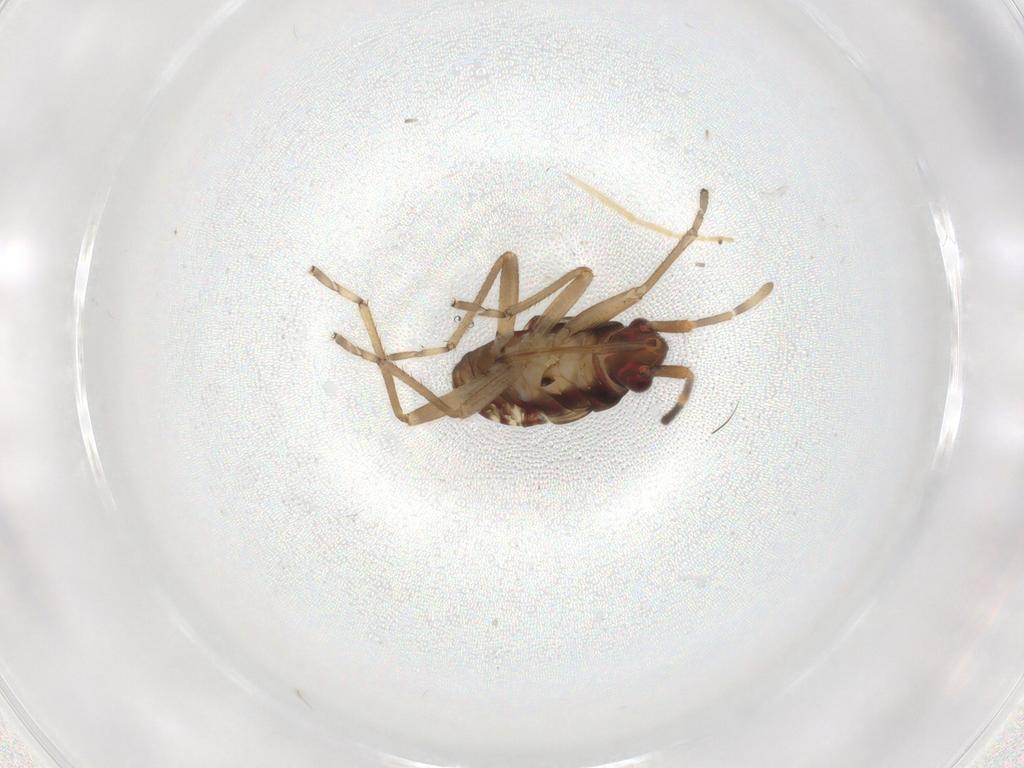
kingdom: Animalia
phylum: Arthropoda
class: Insecta
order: Hemiptera
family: Rhyparochromidae
